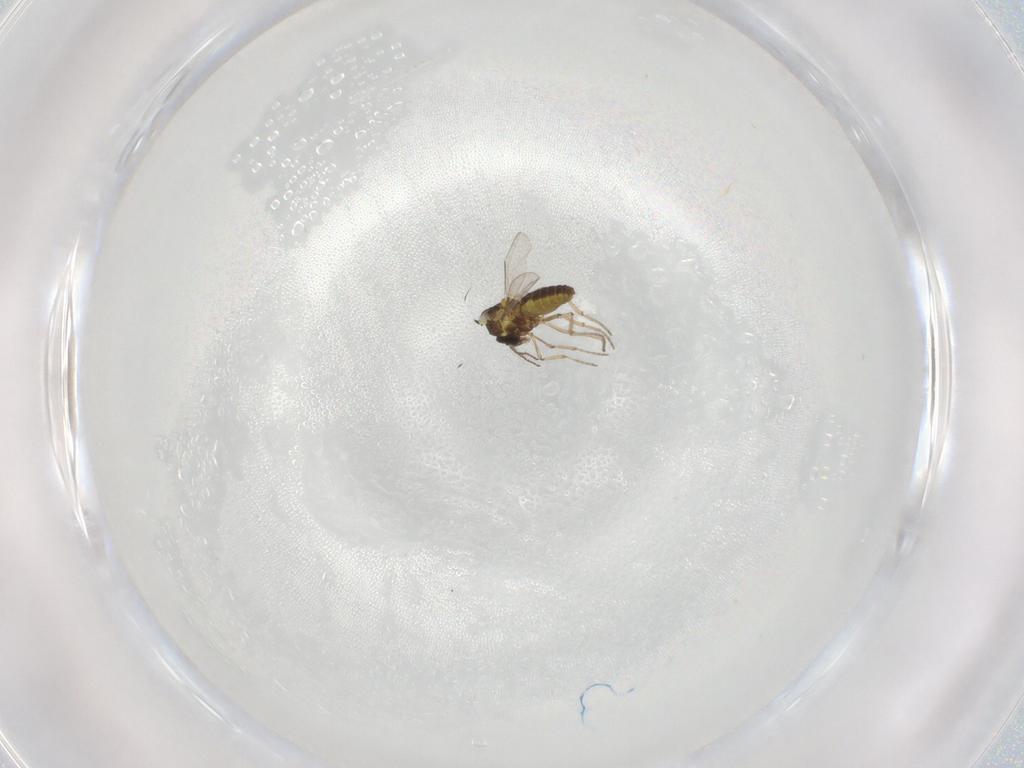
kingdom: Animalia
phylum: Arthropoda
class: Insecta
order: Diptera
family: Ceratopogonidae
